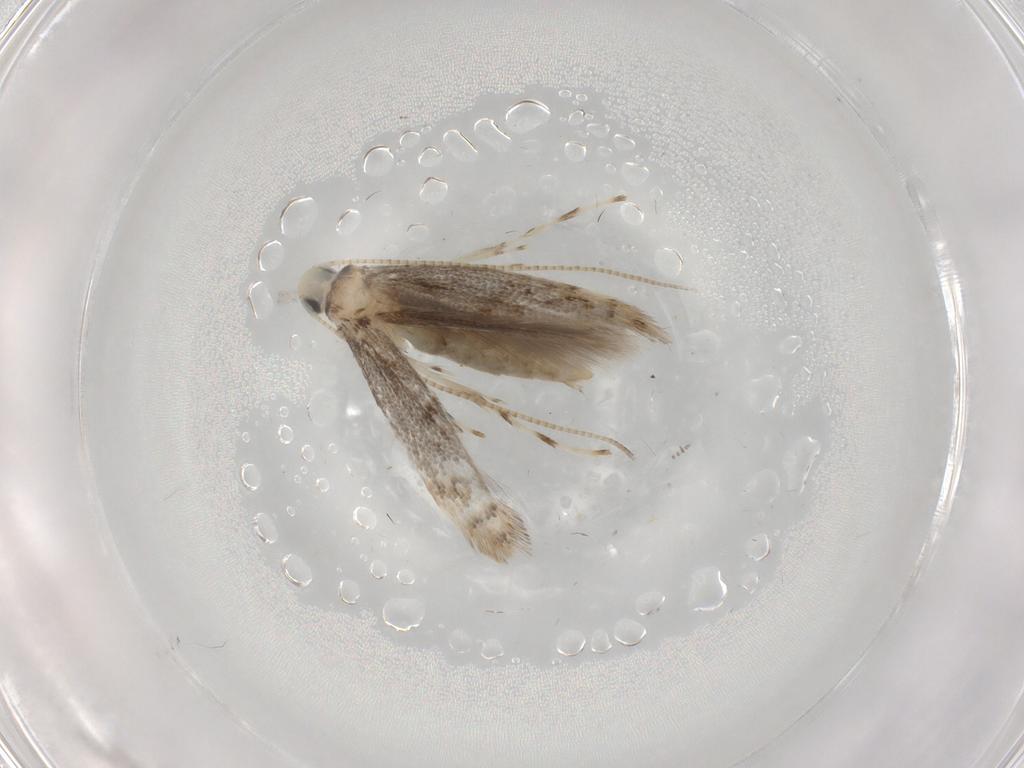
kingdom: Animalia
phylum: Arthropoda
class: Insecta
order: Lepidoptera
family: Gracillariidae
